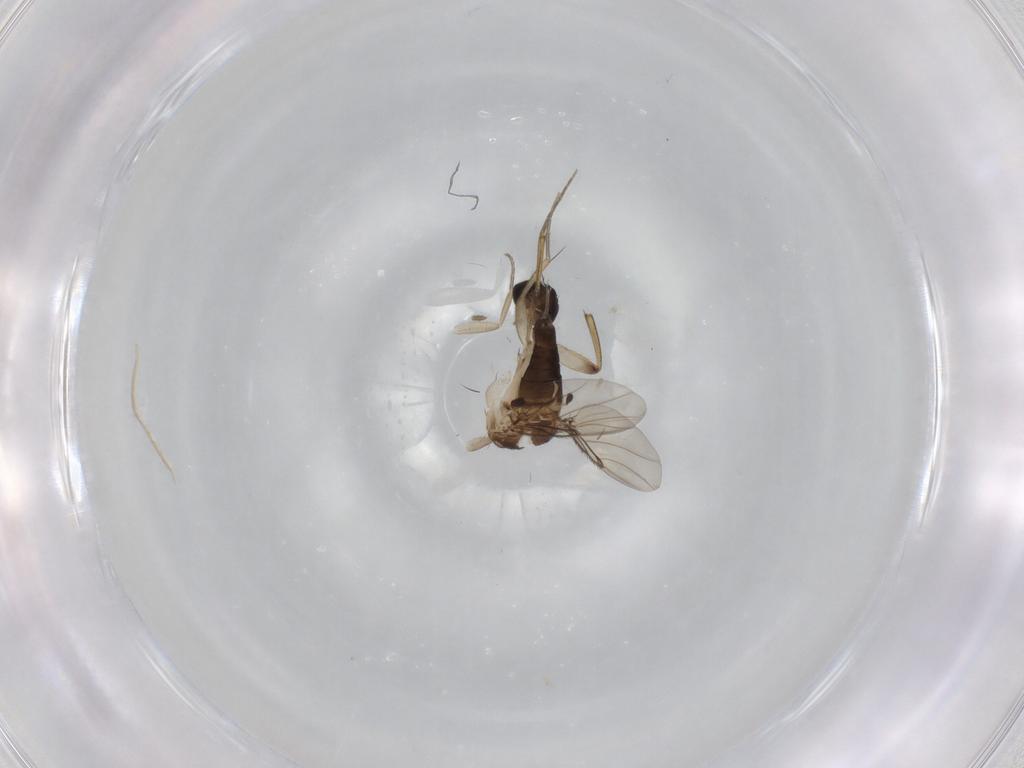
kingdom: Animalia
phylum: Arthropoda
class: Insecta
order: Diptera
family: Phoridae
